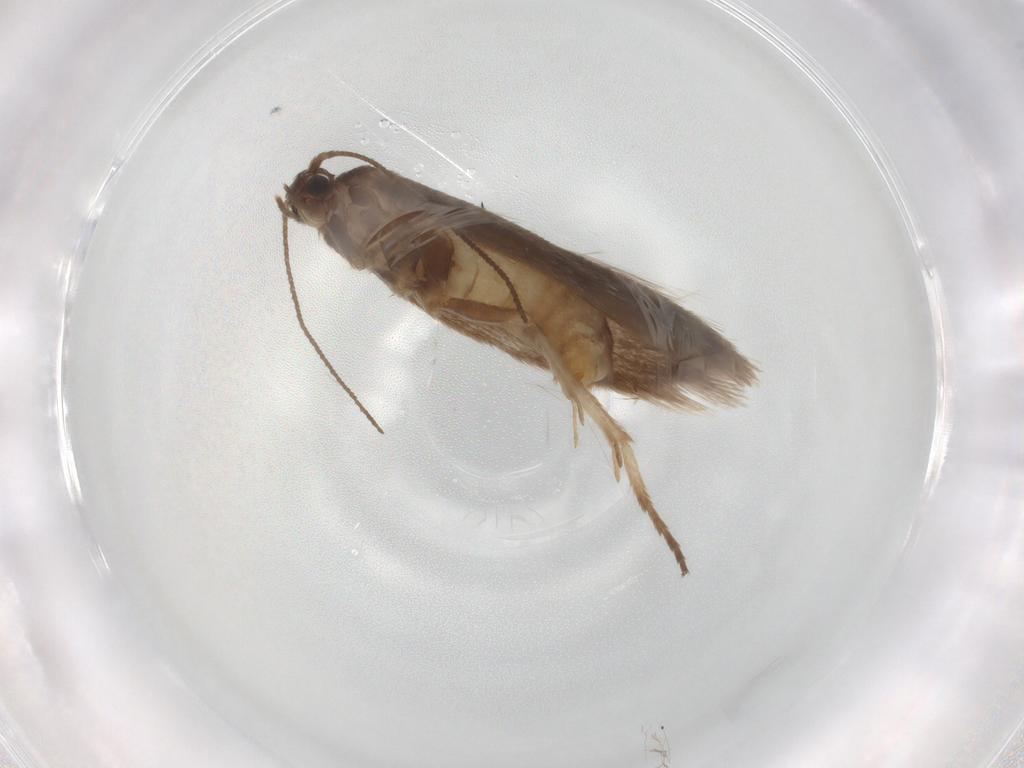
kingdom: Animalia
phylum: Arthropoda
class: Insecta
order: Lepidoptera
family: Limacodidae
